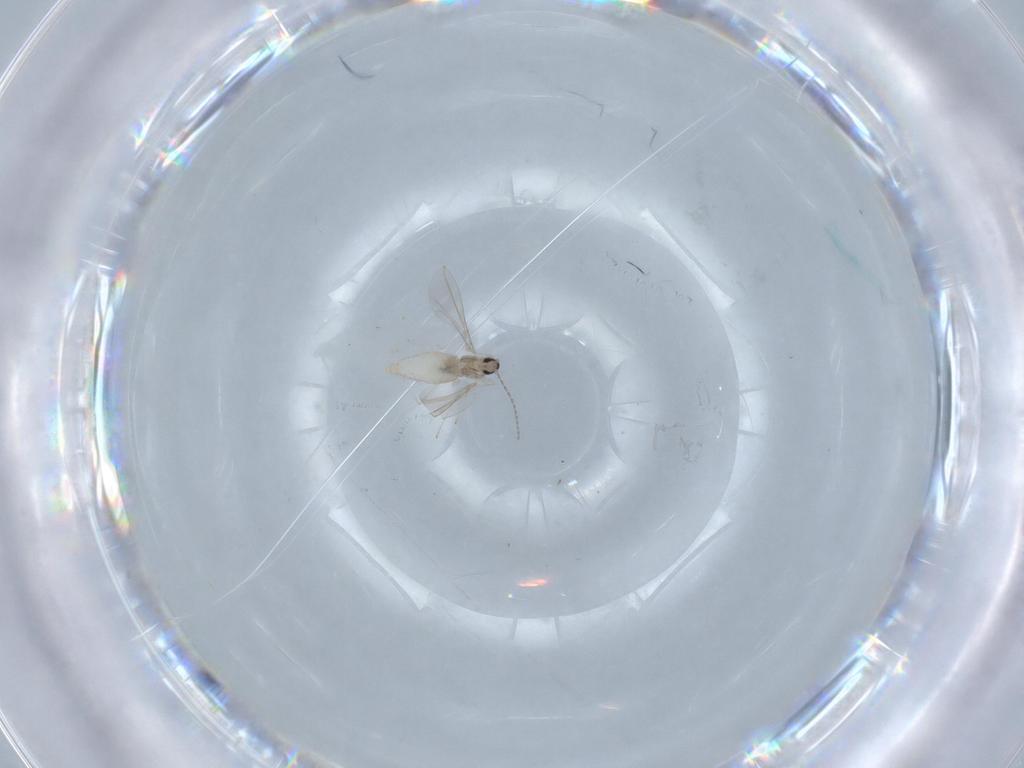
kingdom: Animalia
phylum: Arthropoda
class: Insecta
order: Diptera
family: Cecidomyiidae
